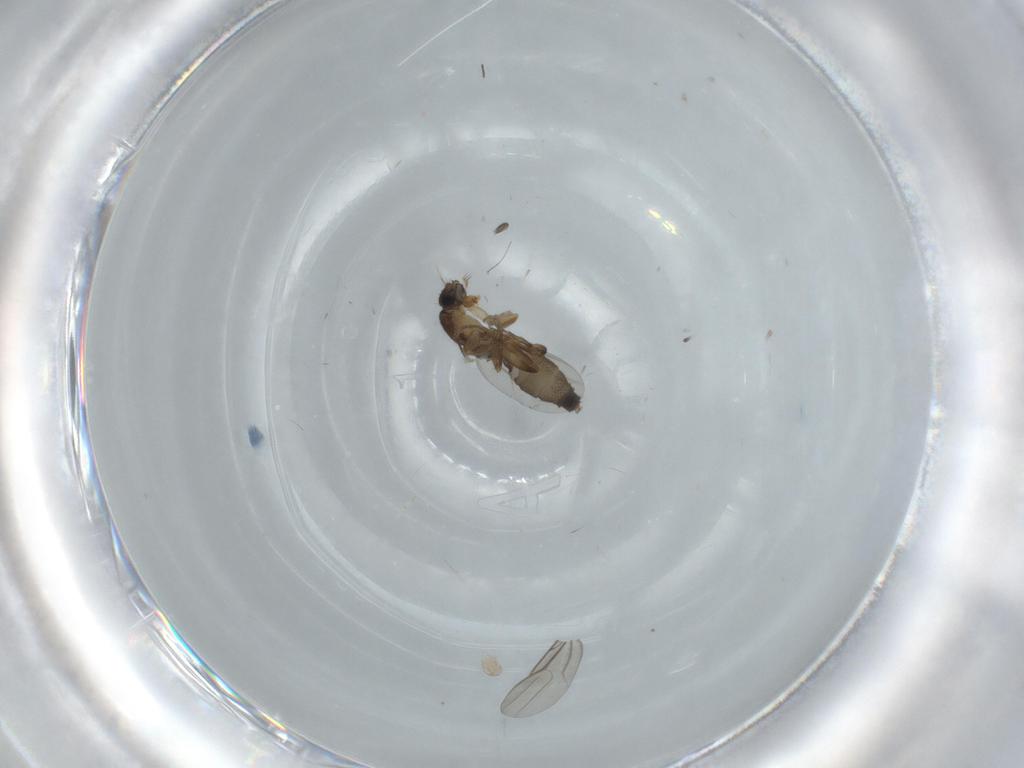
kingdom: Animalia
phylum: Arthropoda
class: Insecta
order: Diptera
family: Phoridae
